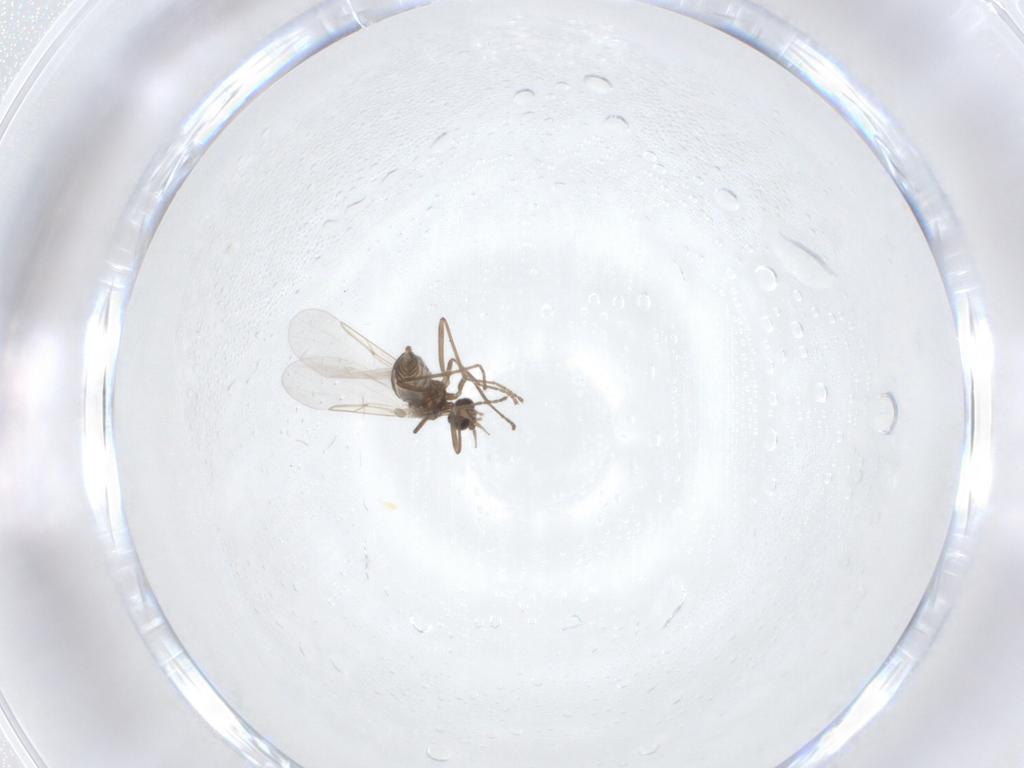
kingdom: Animalia
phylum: Arthropoda
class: Insecta
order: Diptera
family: Cecidomyiidae
